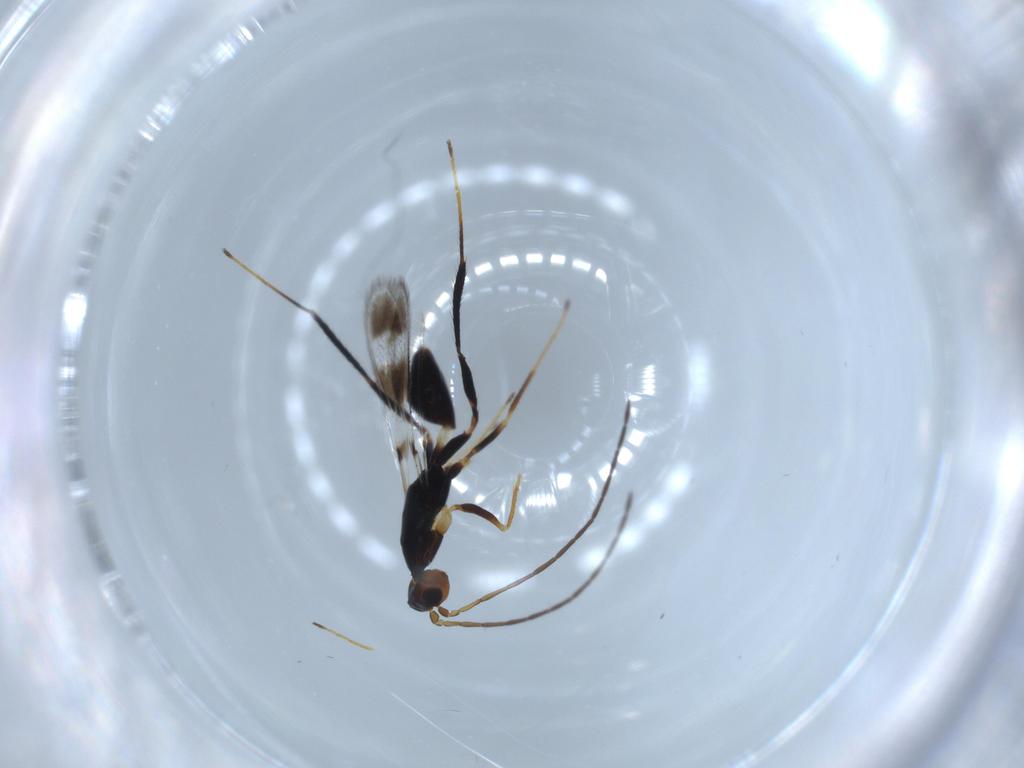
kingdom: Animalia
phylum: Arthropoda
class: Insecta
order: Hymenoptera
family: Mymaridae
